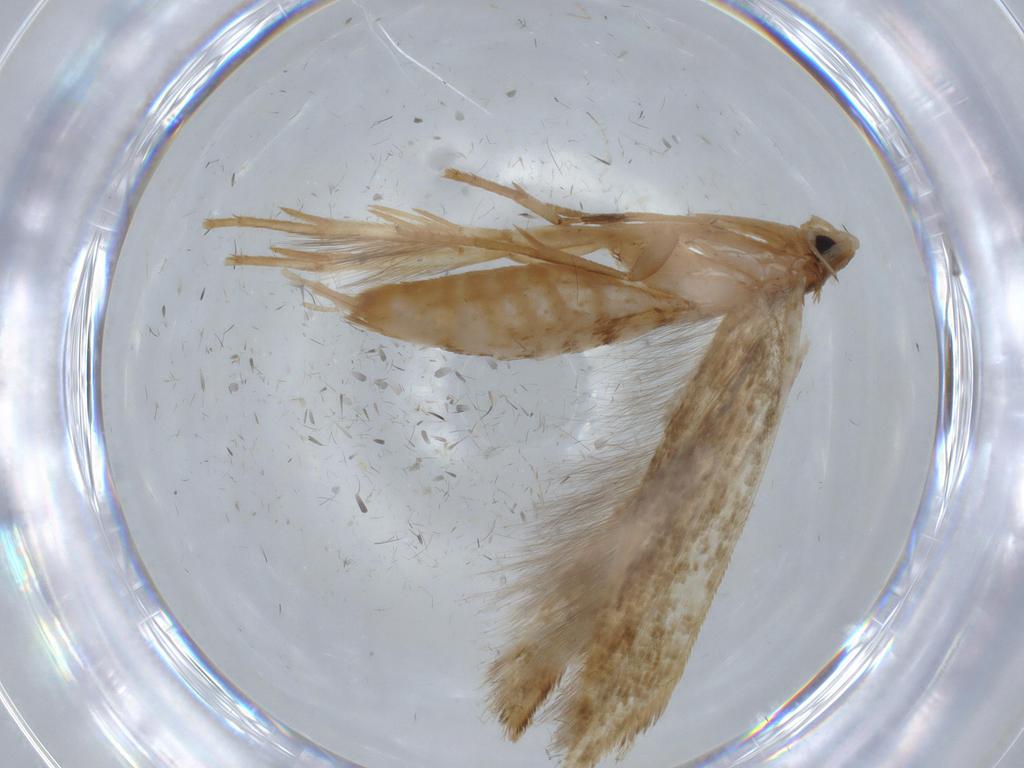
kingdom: Animalia
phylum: Arthropoda
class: Insecta
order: Lepidoptera
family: Tineidae
